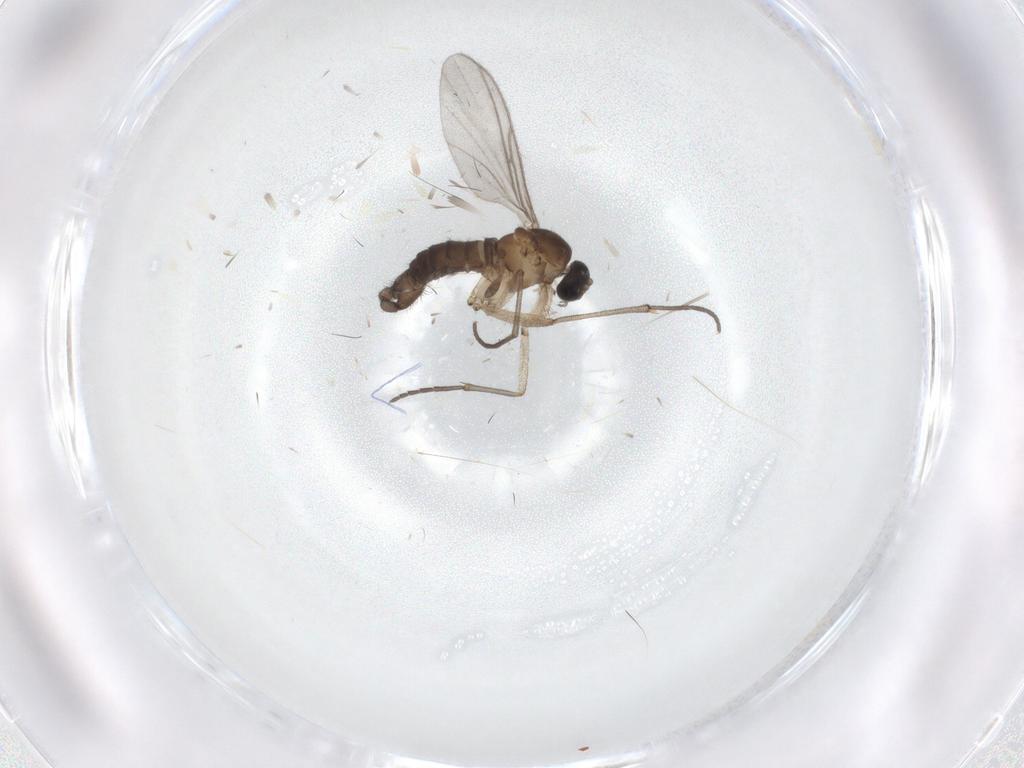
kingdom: Animalia
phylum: Arthropoda
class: Insecta
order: Diptera
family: Sciaridae
